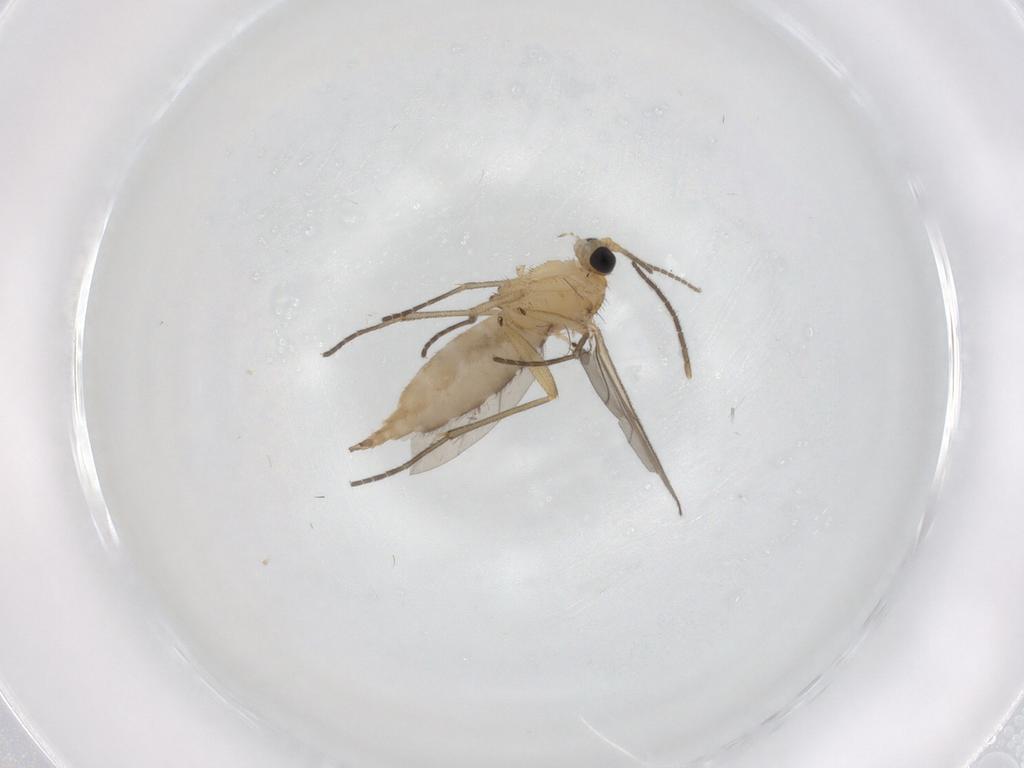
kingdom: Animalia
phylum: Arthropoda
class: Insecta
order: Diptera
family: Sciaridae
